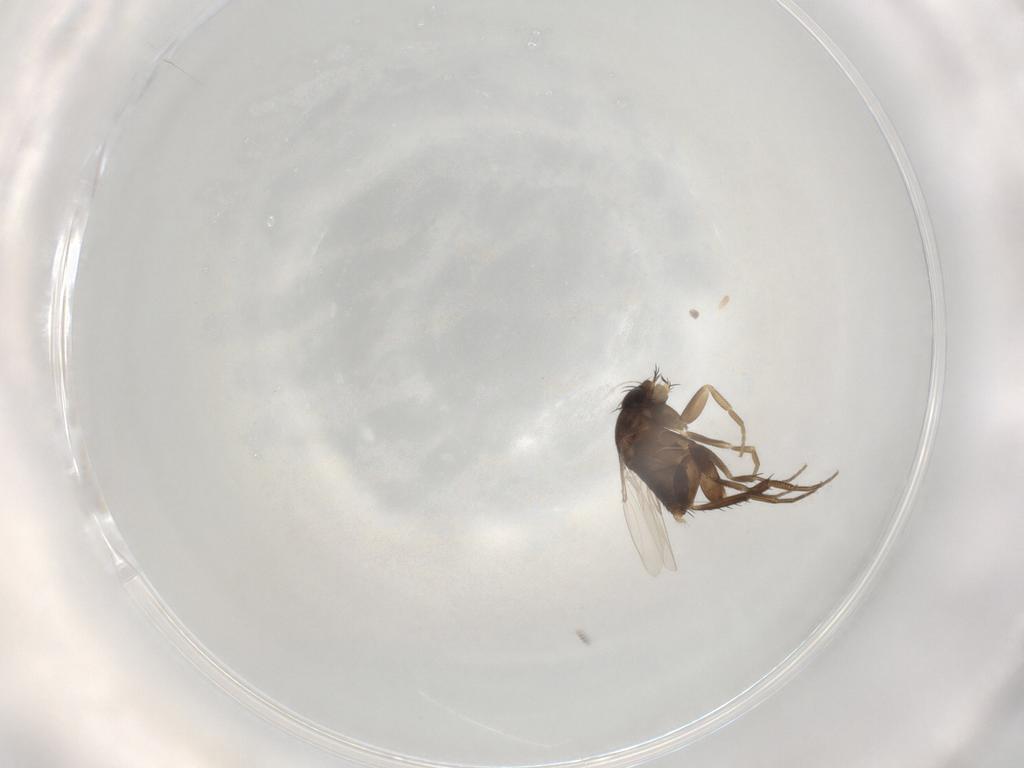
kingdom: Animalia
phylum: Arthropoda
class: Insecta
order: Diptera
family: Phoridae
